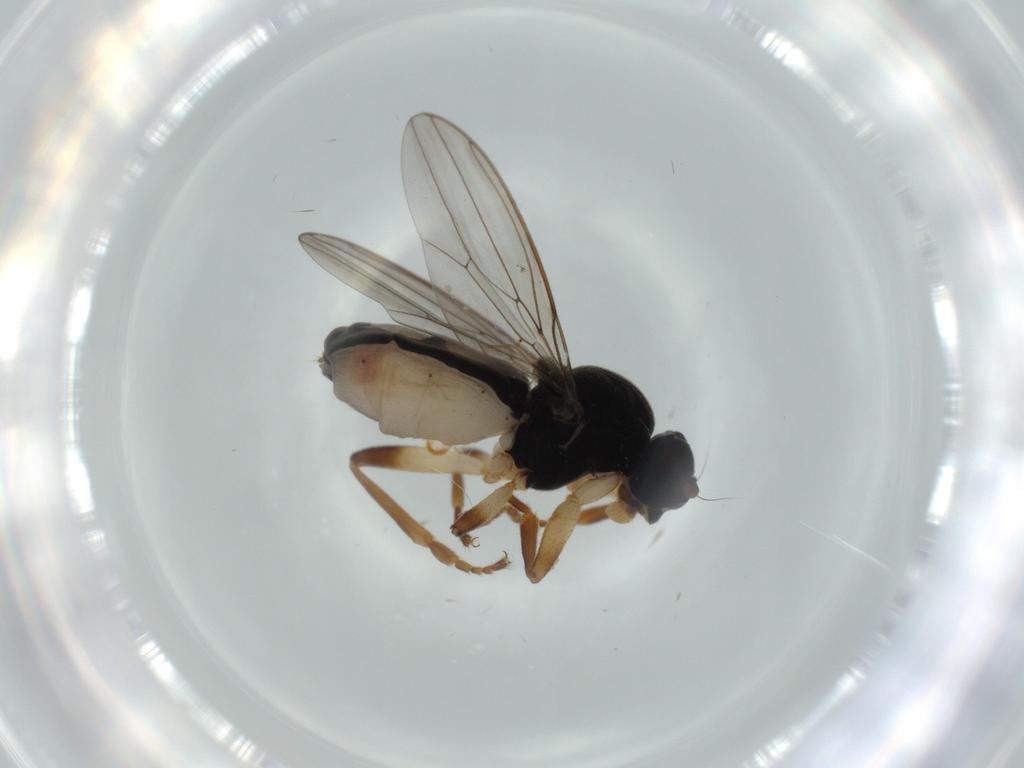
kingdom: Animalia
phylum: Arthropoda
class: Insecta
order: Diptera
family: Sphaeroceridae
